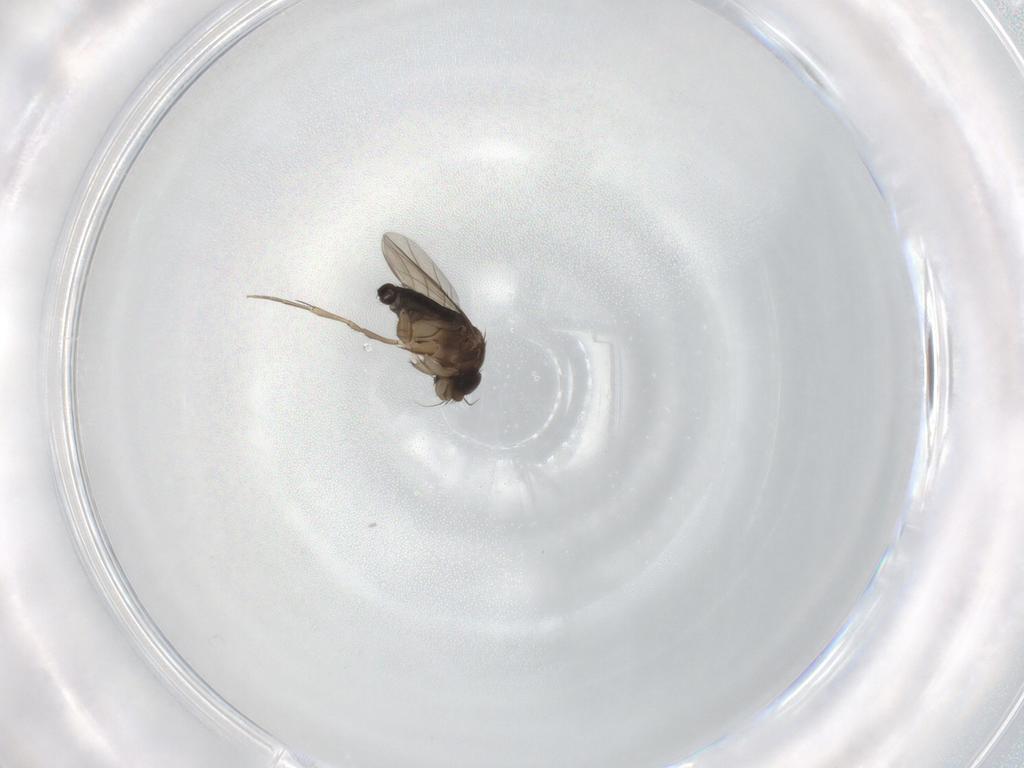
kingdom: Animalia
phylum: Arthropoda
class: Insecta
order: Diptera
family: Phoridae
